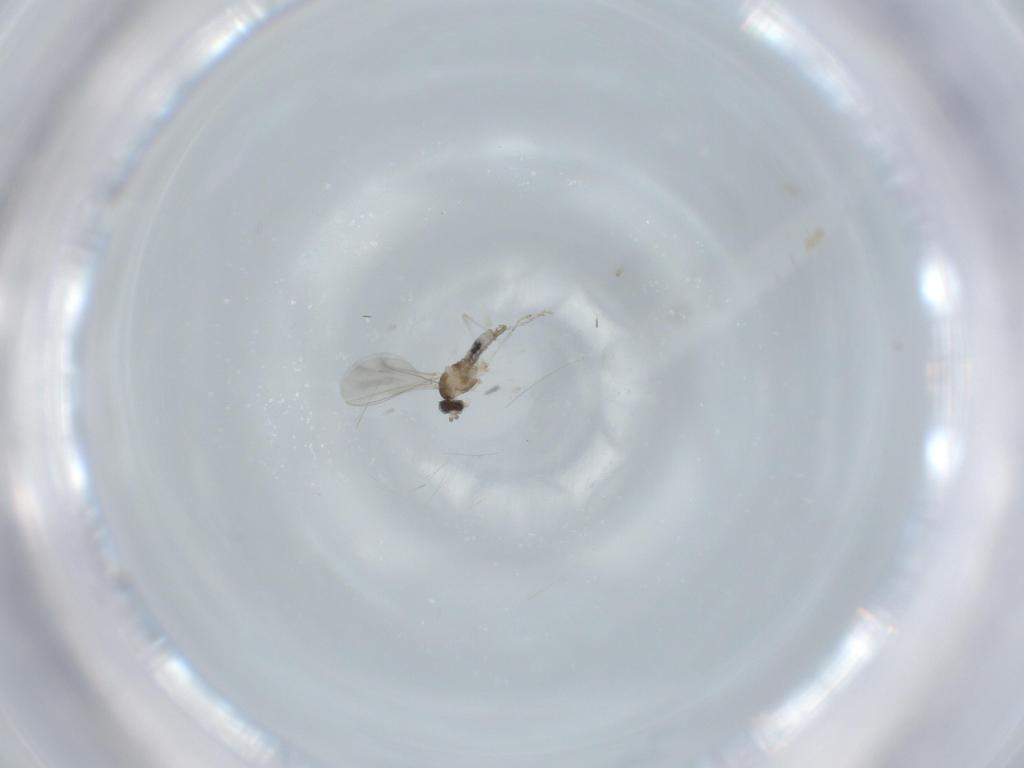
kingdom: Animalia
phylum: Arthropoda
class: Insecta
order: Diptera
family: Cecidomyiidae
